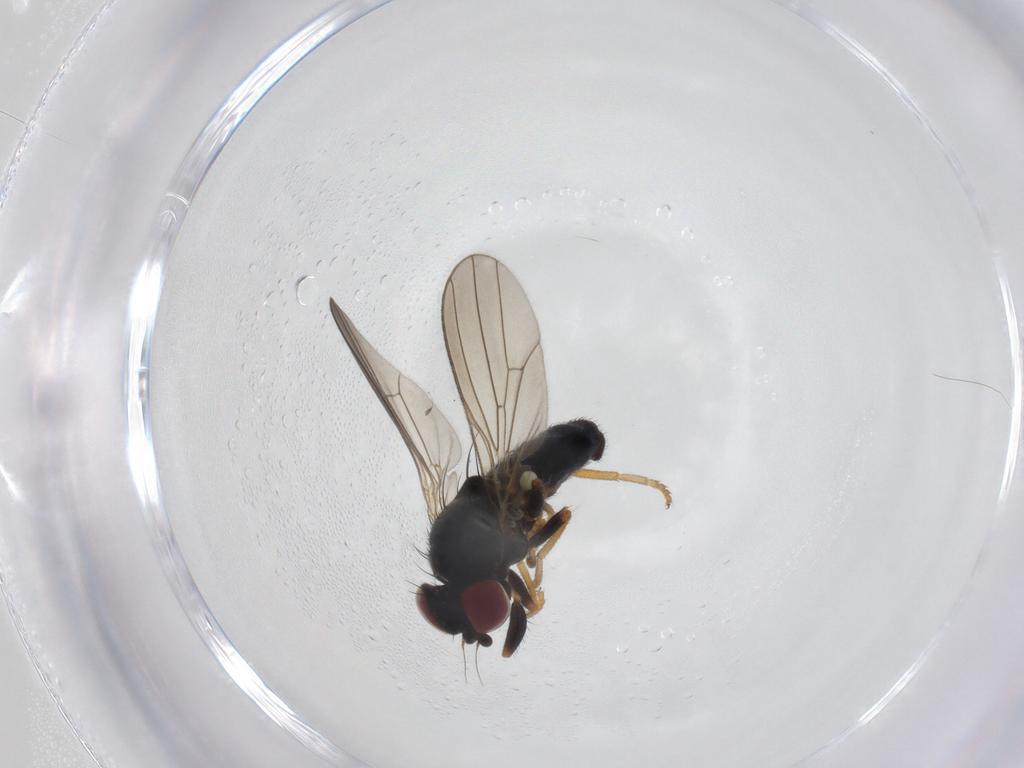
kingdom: Animalia
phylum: Arthropoda
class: Insecta
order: Diptera
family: Chamaemyiidae
